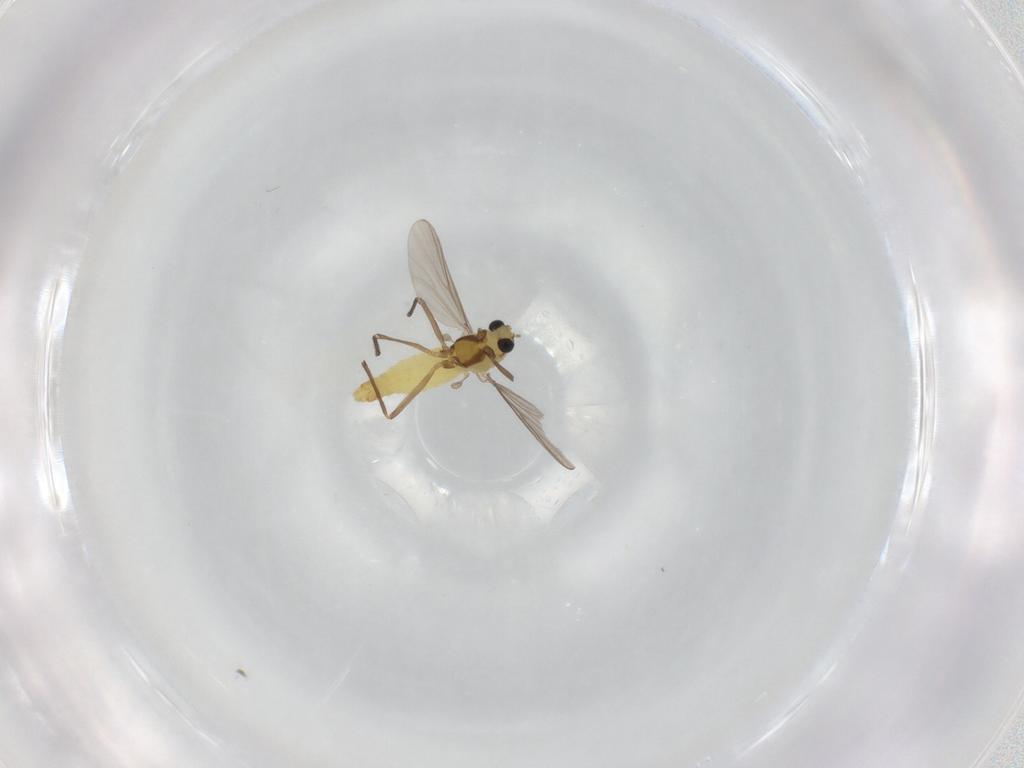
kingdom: Animalia
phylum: Arthropoda
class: Insecta
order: Diptera
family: Chironomidae
